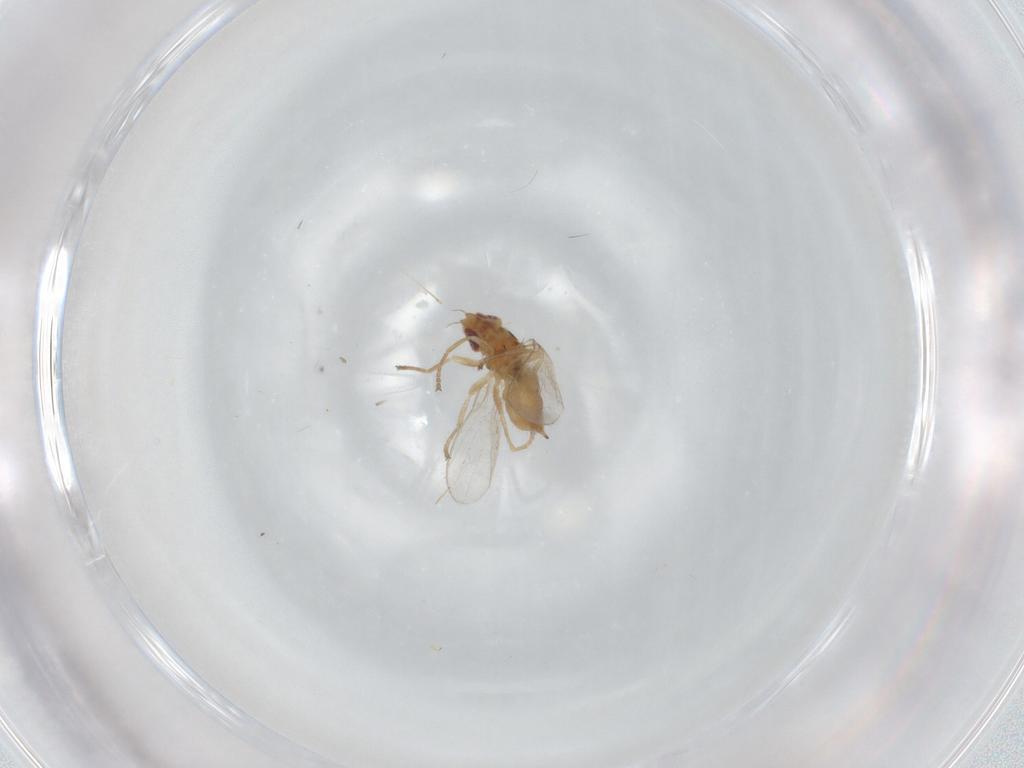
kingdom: Animalia
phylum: Arthropoda
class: Insecta
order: Diptera
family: Chloropidae
